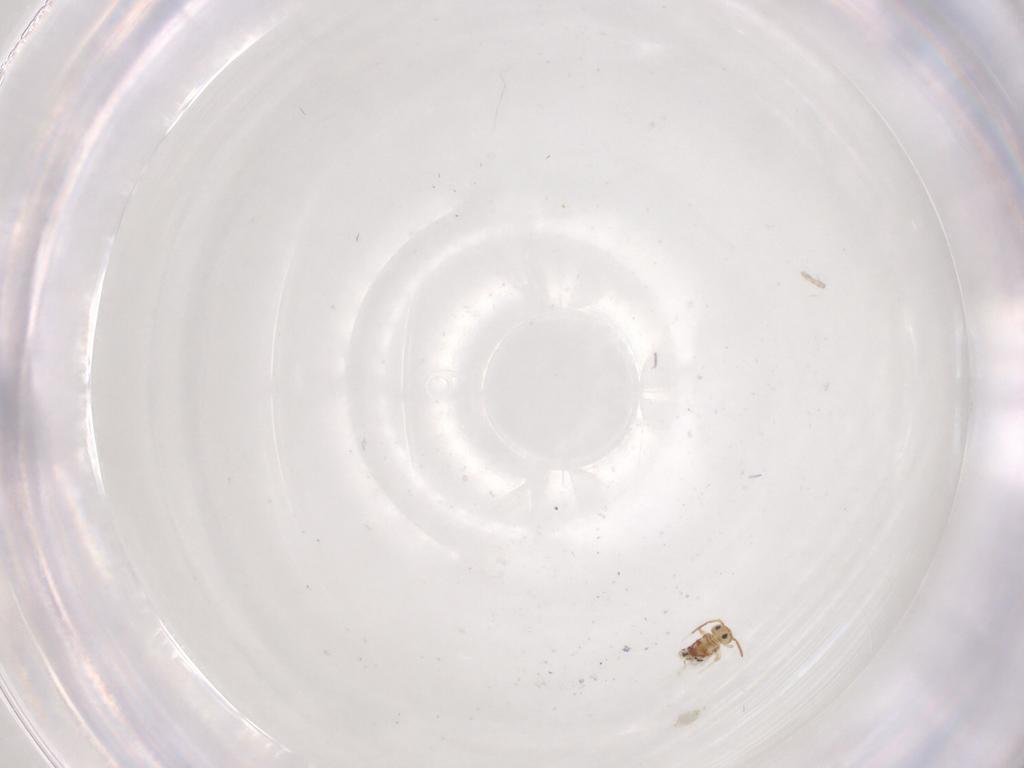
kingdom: Animalia
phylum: Arthropoda
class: Collembola
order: Symphypleona
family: Bourletiellidae
